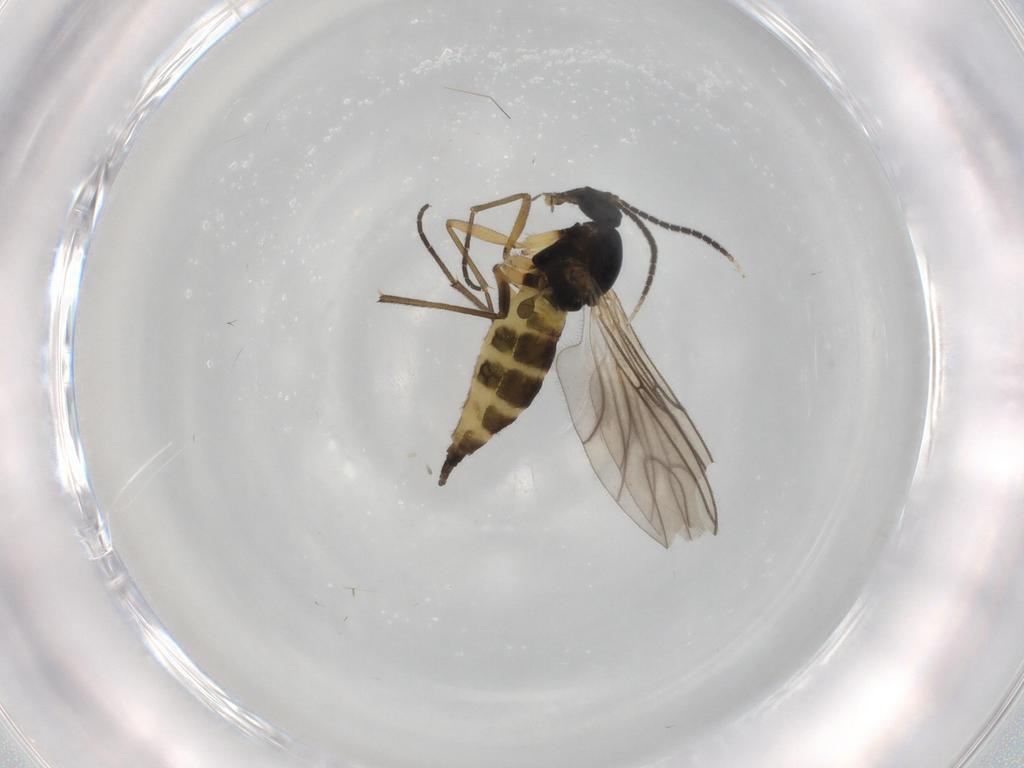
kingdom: Animalia
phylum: Arthropoda
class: Insecta
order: Diptera
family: Sciaridae
